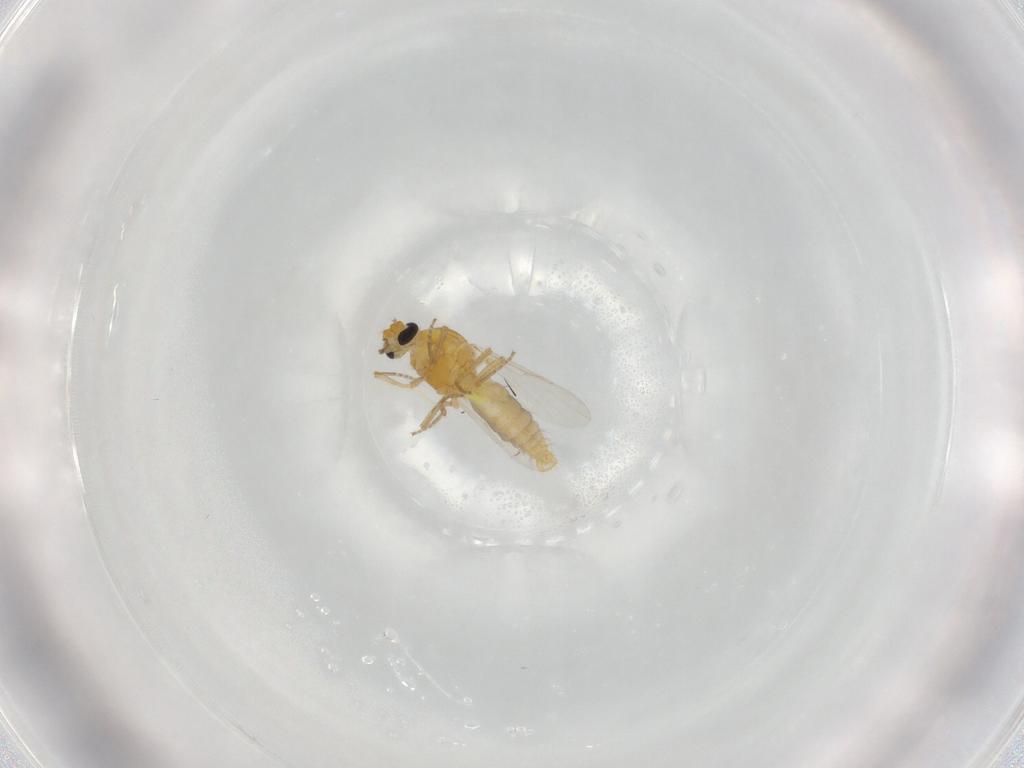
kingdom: Animalia
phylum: Arthropoda
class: Insecta
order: Diptera
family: Ceratopogonidae
